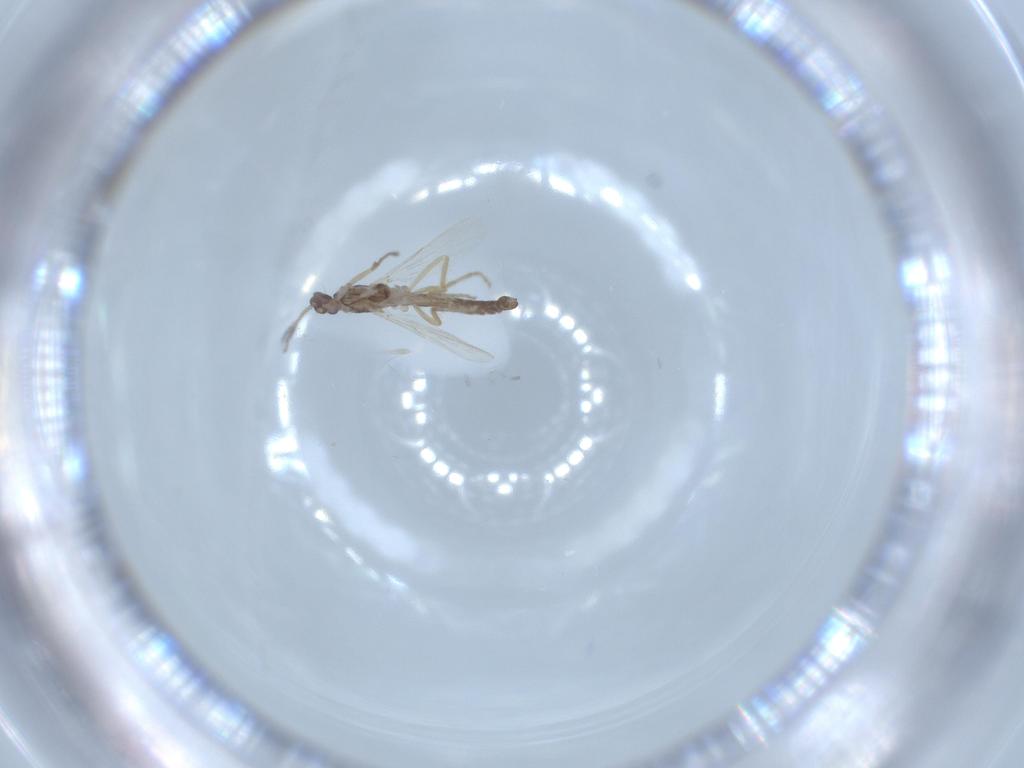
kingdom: Animalia
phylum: Arthropoda
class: Insecta
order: Diptera
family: Ceratopogonidae
